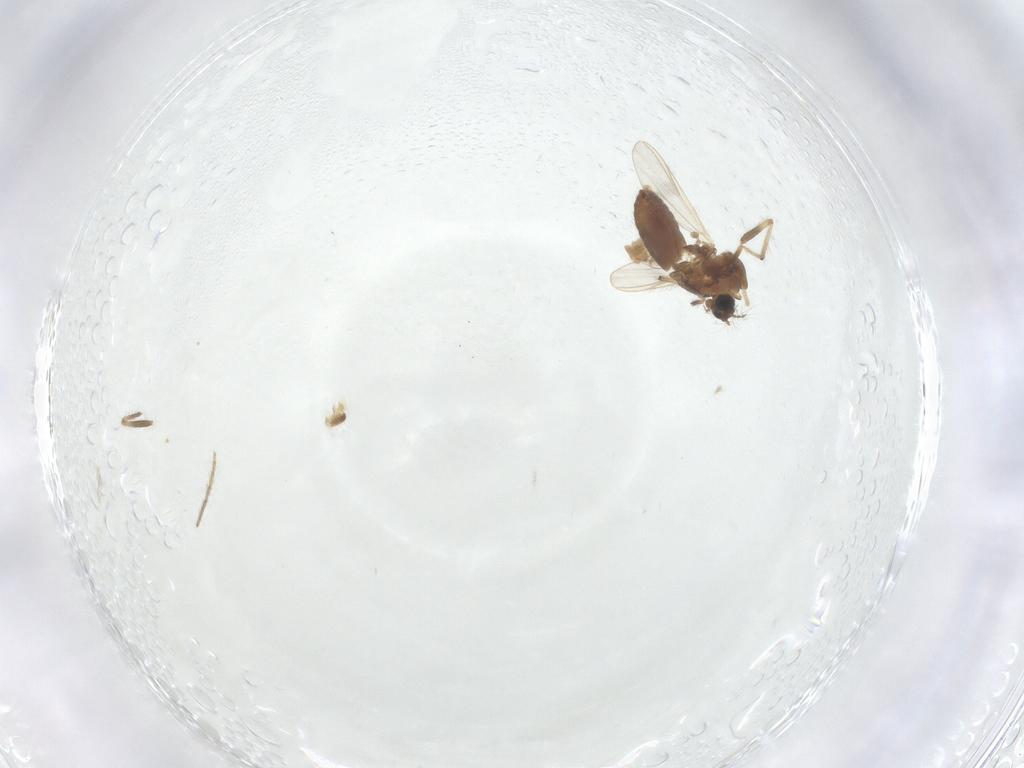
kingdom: Animalia
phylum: Arthropoda
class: Insecta
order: Diptera
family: Chironomidae
